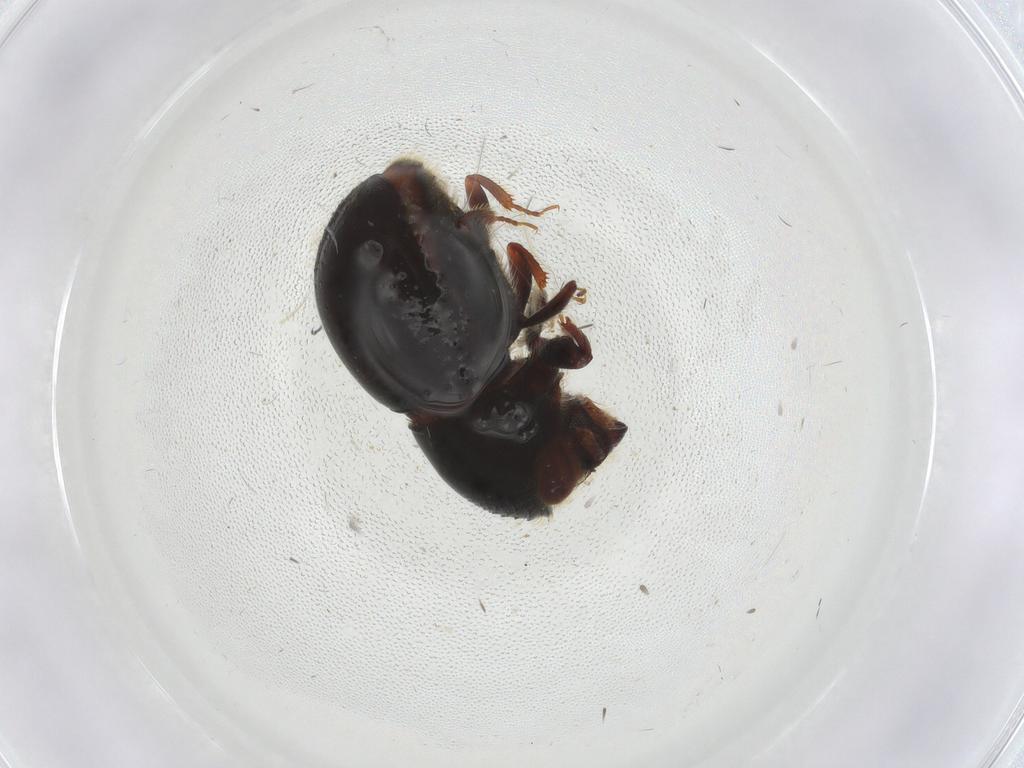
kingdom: Animalia
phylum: Arthropoda
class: Insecta
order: Coleoptera
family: Curculionidae
